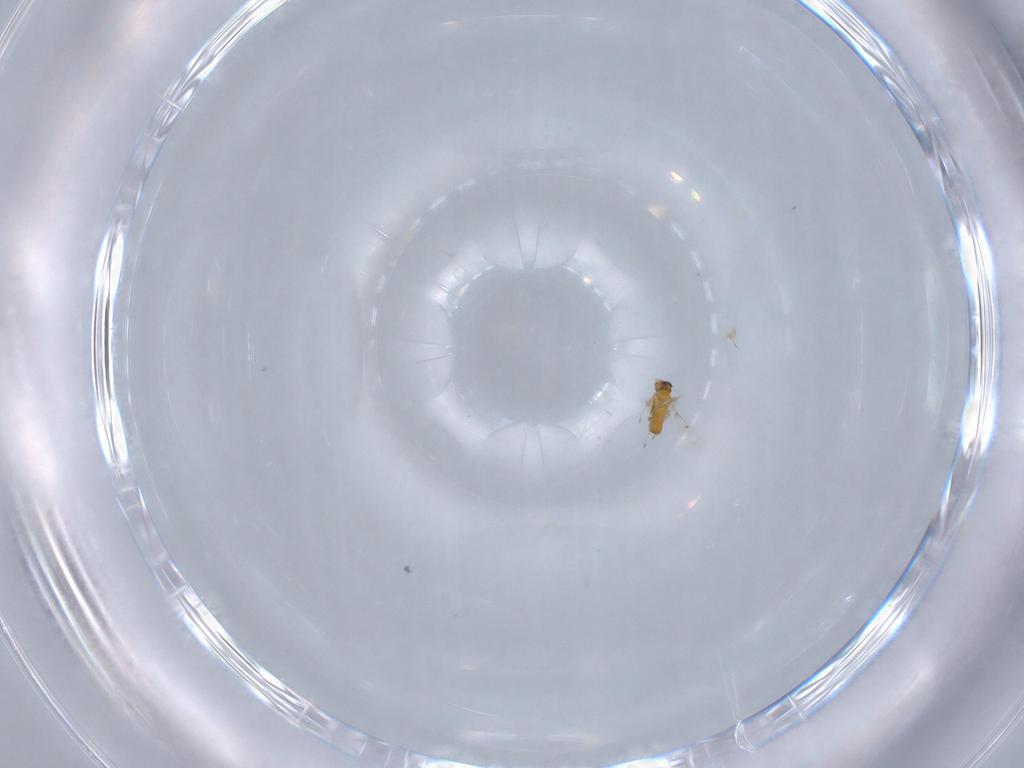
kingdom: Animalia
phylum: Arthropoda
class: Insecta
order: Hymenoptera
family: Trichogrammatidae
